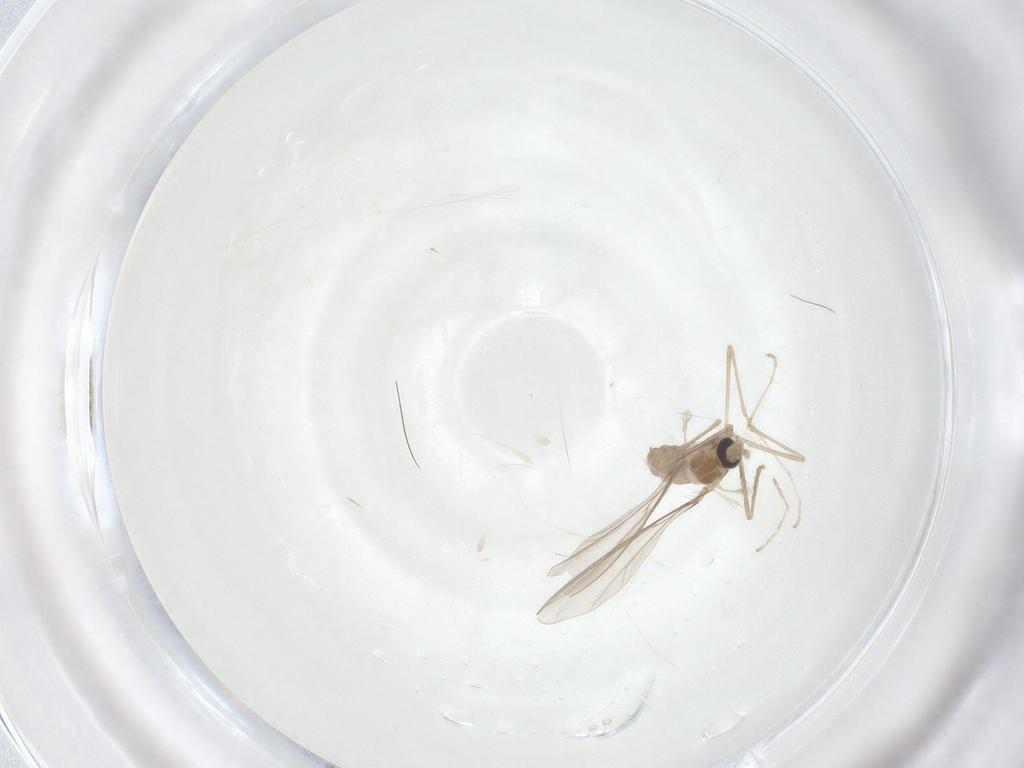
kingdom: Animalia
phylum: Arthropoda
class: Insecta
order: Diptera
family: Cecidomyiidae
